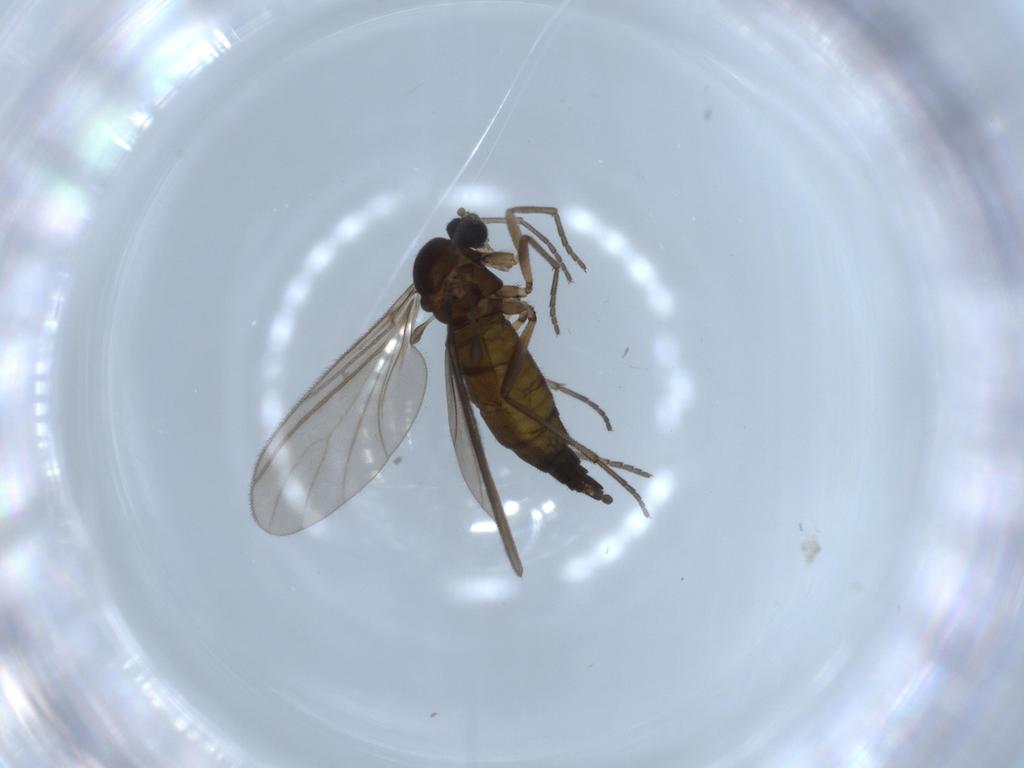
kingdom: Animalia
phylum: Arthropoda
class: Insecta
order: Diptera
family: Sciaridae
